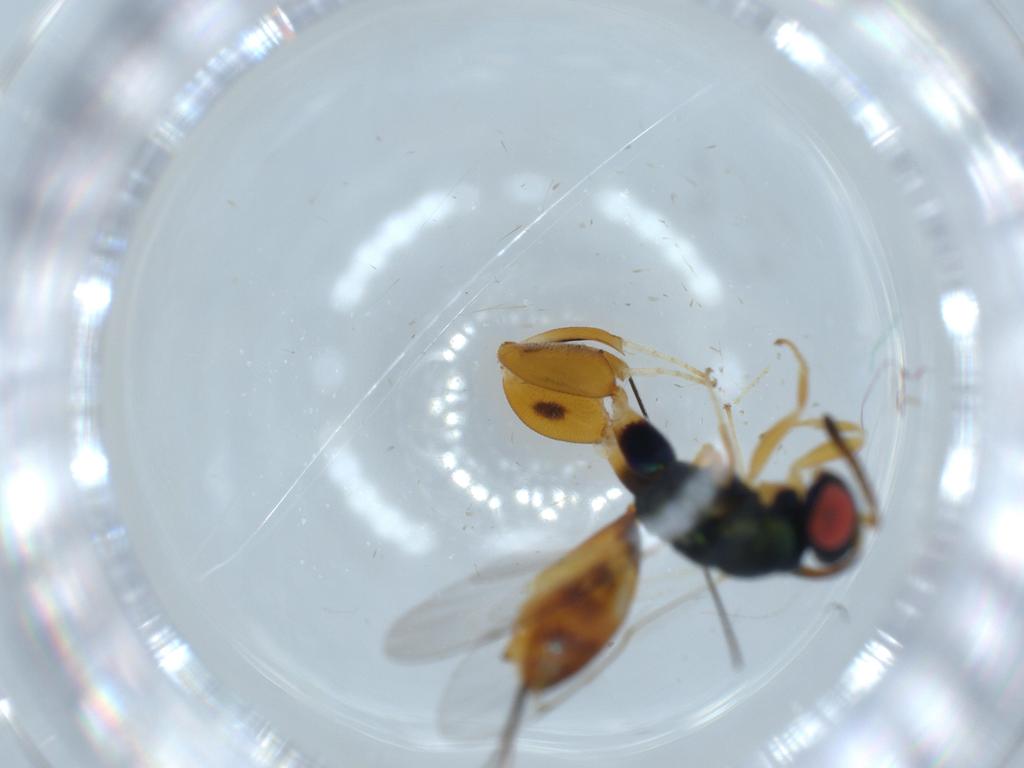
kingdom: Animalia
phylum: Arthropoda
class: Insecta
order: Hymenoptera
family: Torymidae
